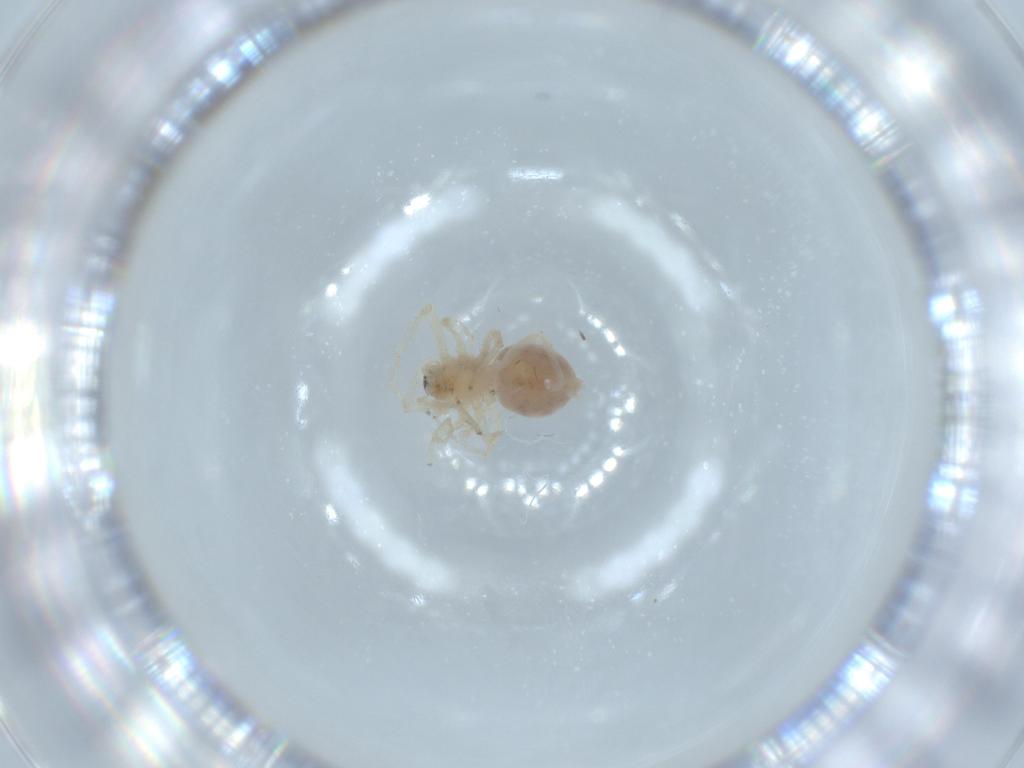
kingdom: Animalia
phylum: Arthropoda
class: Arachnida
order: Araneae
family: Anyphaenidae
